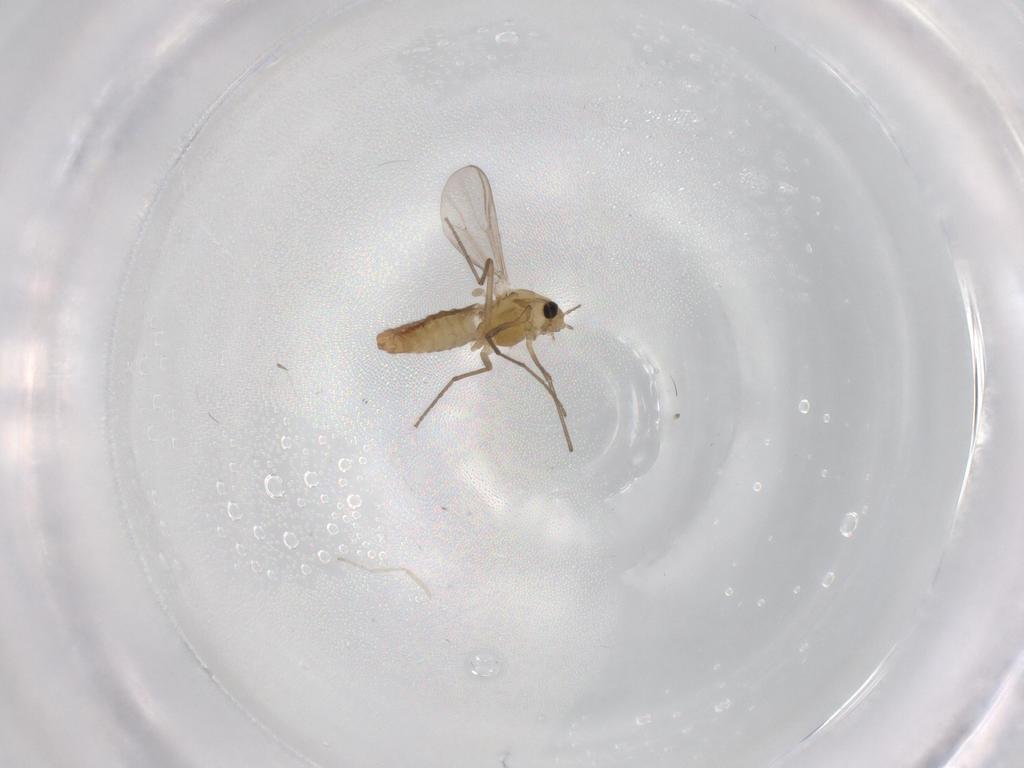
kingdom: Animalia
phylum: Arthropoda
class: Insecta
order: Diptera
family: Chironomidae
